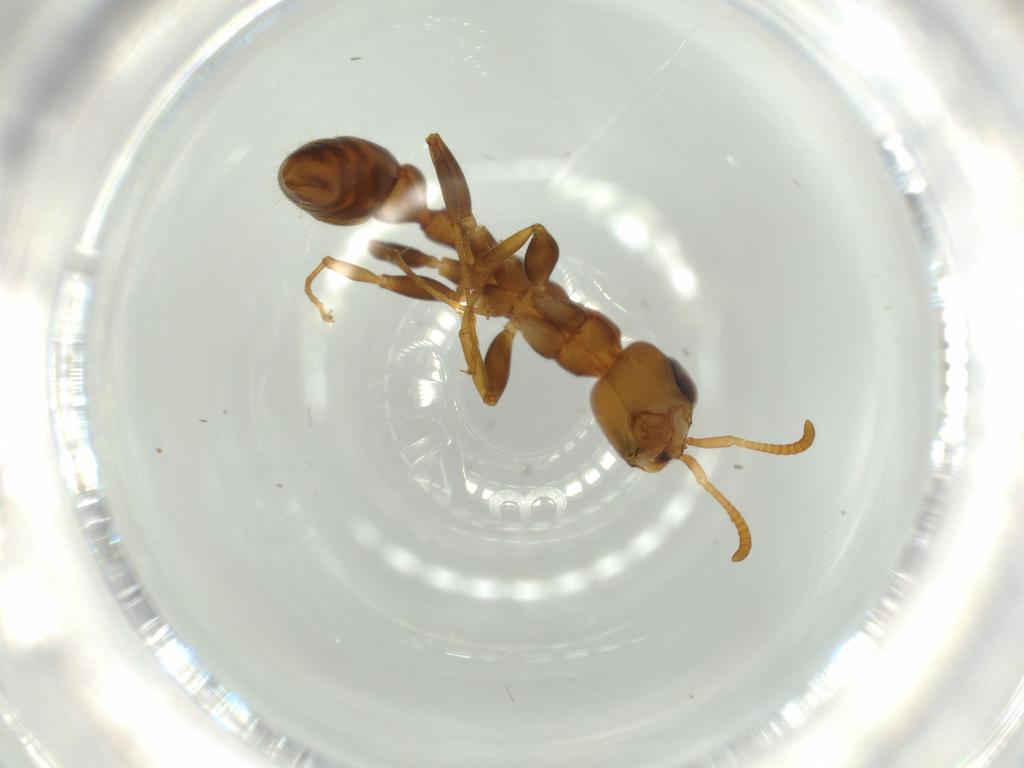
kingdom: Animalia
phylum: Arthropoda
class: Insecta
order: Hymenoptera
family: Formicidae
